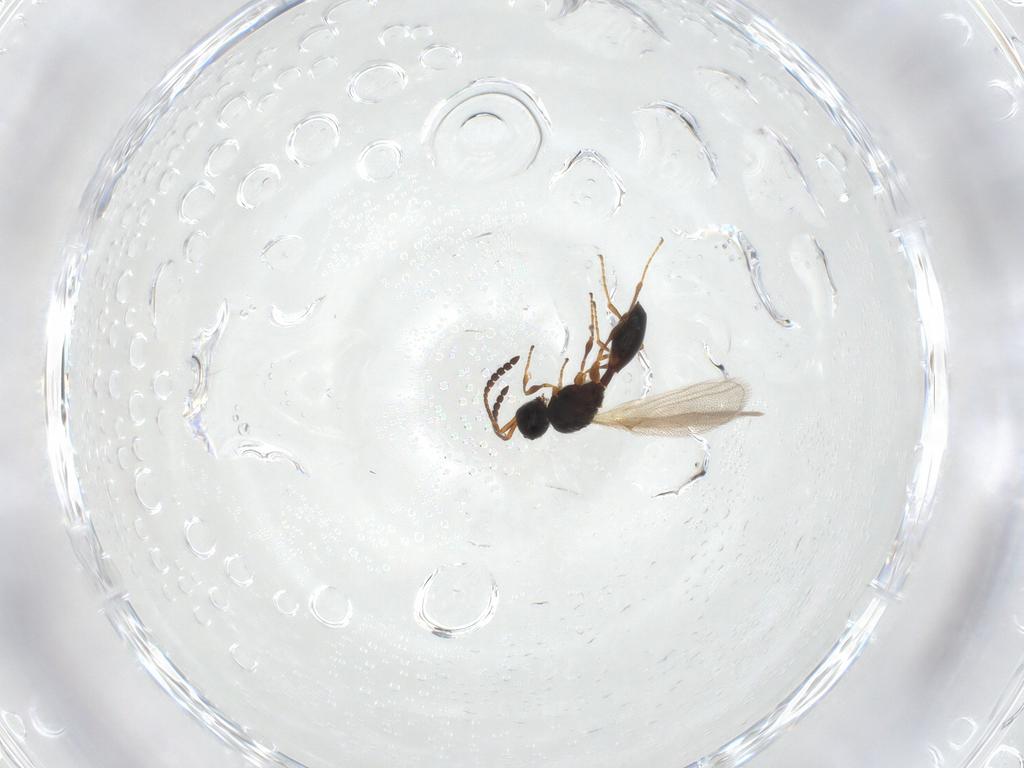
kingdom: Animalia
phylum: Arthropoda
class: Insecta
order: Hymenoptera
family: Diapriidae
